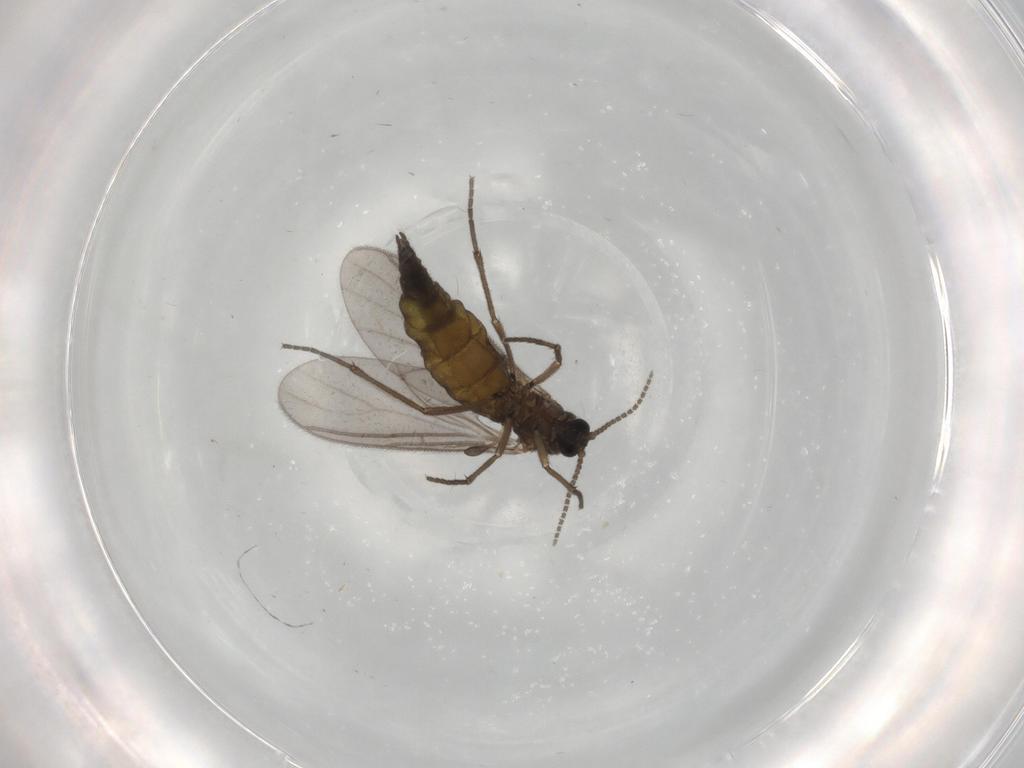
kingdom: Animalia
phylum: Arthropoda
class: Insecta
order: Diptera
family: Sciaridae
